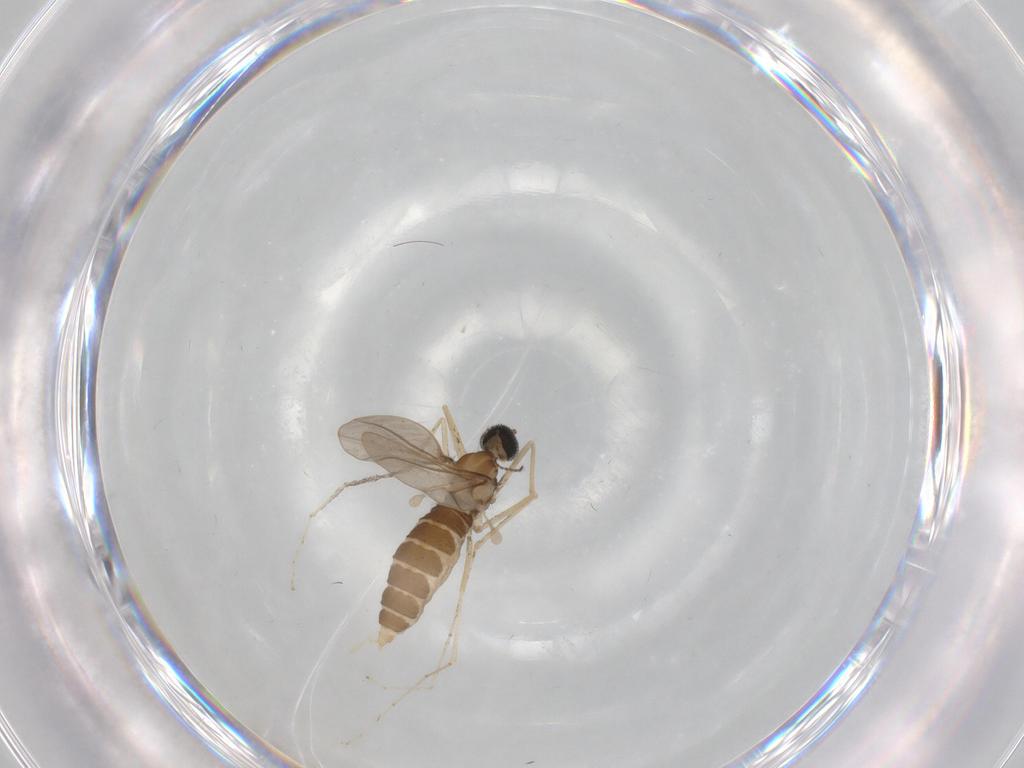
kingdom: Animalia
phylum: Arthropoda
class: Insecta
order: Diptera
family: Cecidomyiidae
